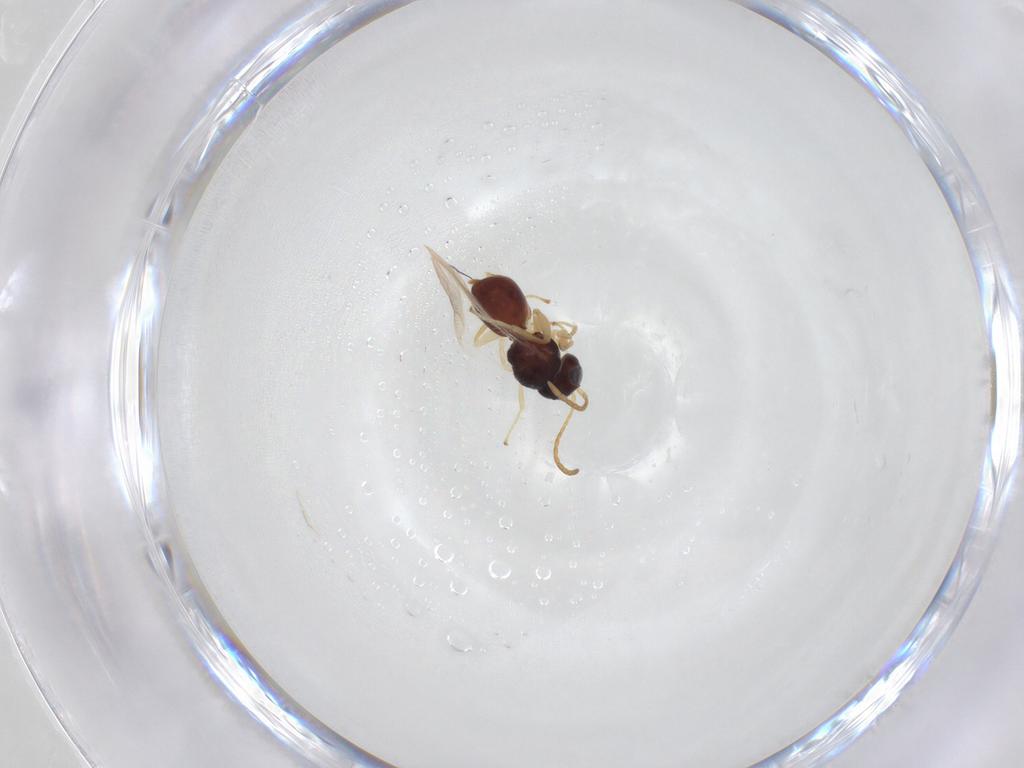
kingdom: Animalia
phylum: Arthropoda
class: Insecta
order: Hymenoptera
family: Cynipidae
